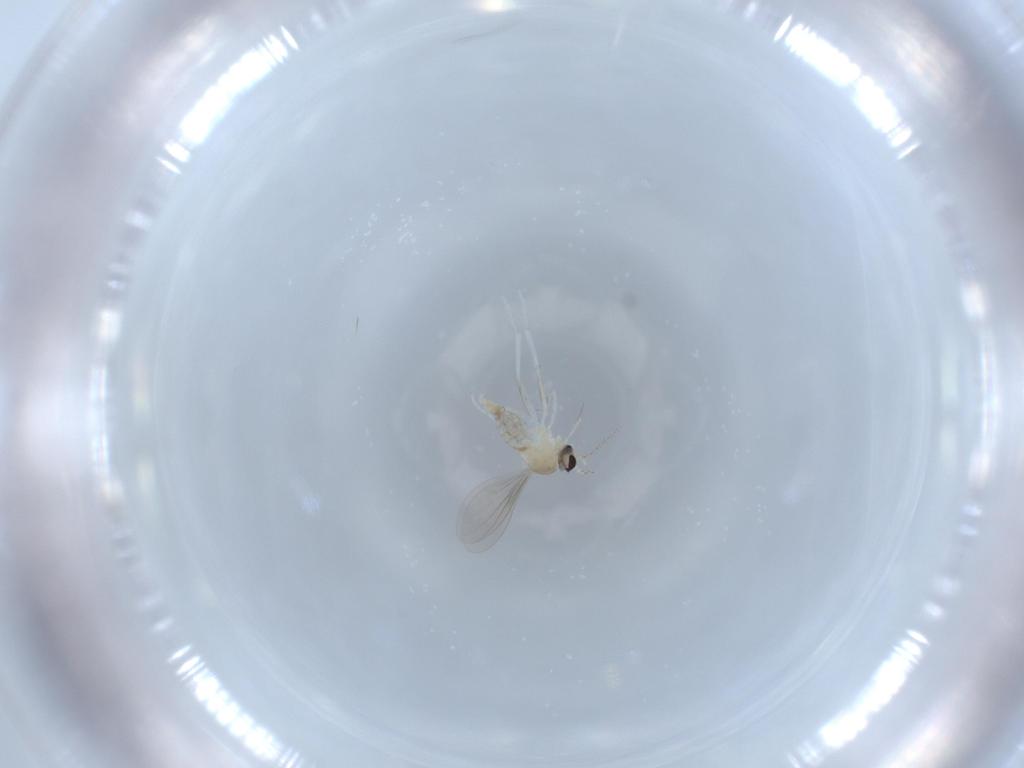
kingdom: Animalia
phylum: Arthropoda
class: Insecta
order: Diptera
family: Cecidomyiidae
